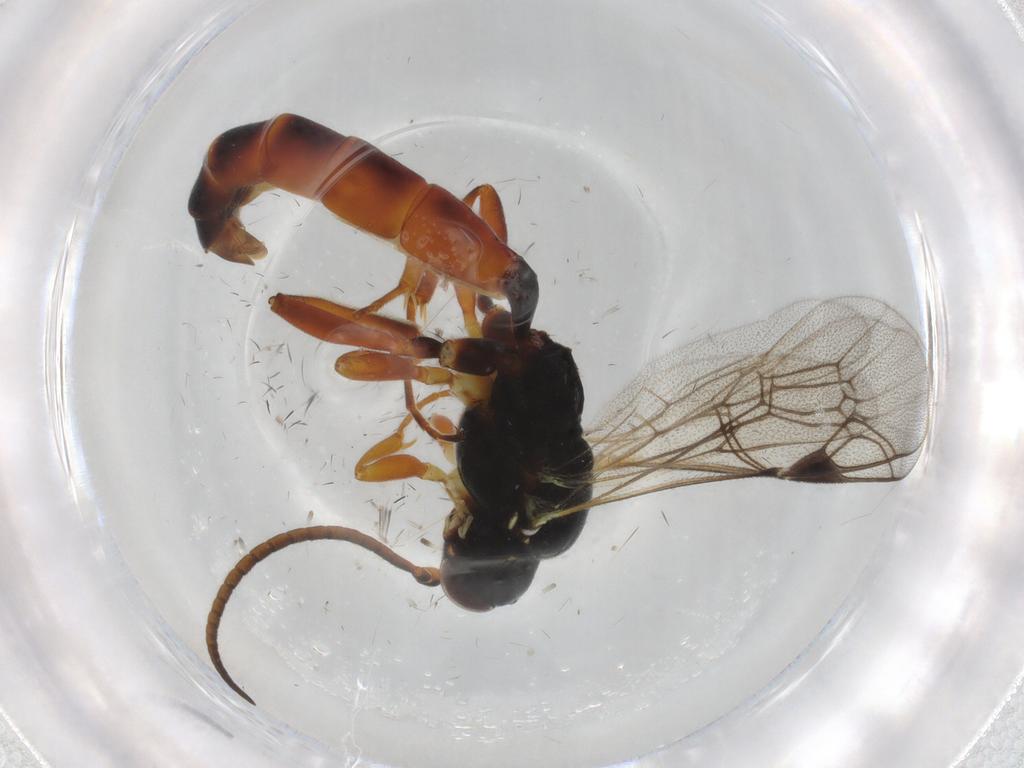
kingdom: Animalia
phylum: Arthropoda
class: Insecta
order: Hymenoptera
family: Ichneumonidae
